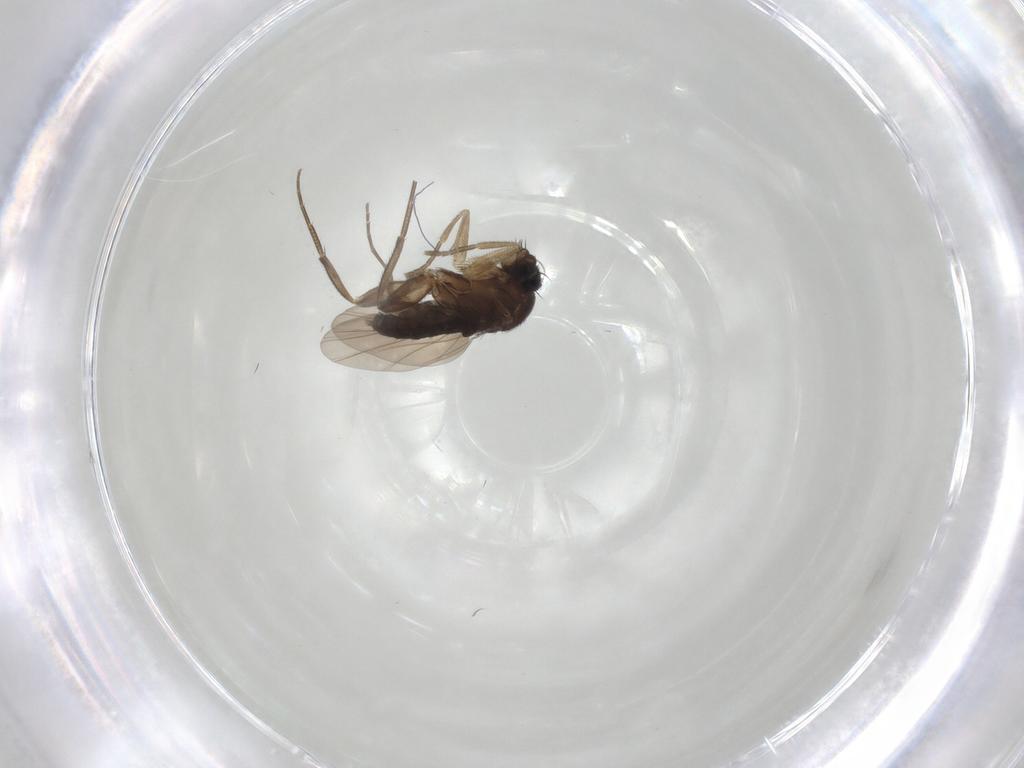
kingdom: Animalia
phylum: Arthropoda
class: Insecta
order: Diptera
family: Phoridae
